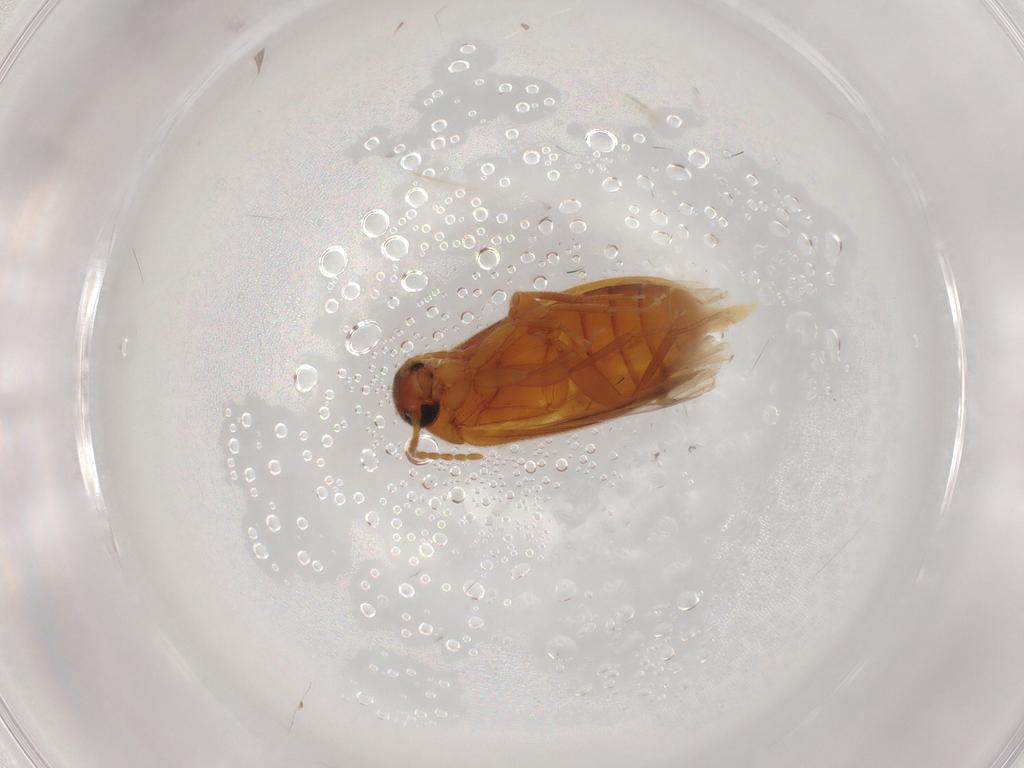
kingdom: Animalia
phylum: Arthropoda
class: Insecta
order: Coleoptera
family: Scraptiidae
